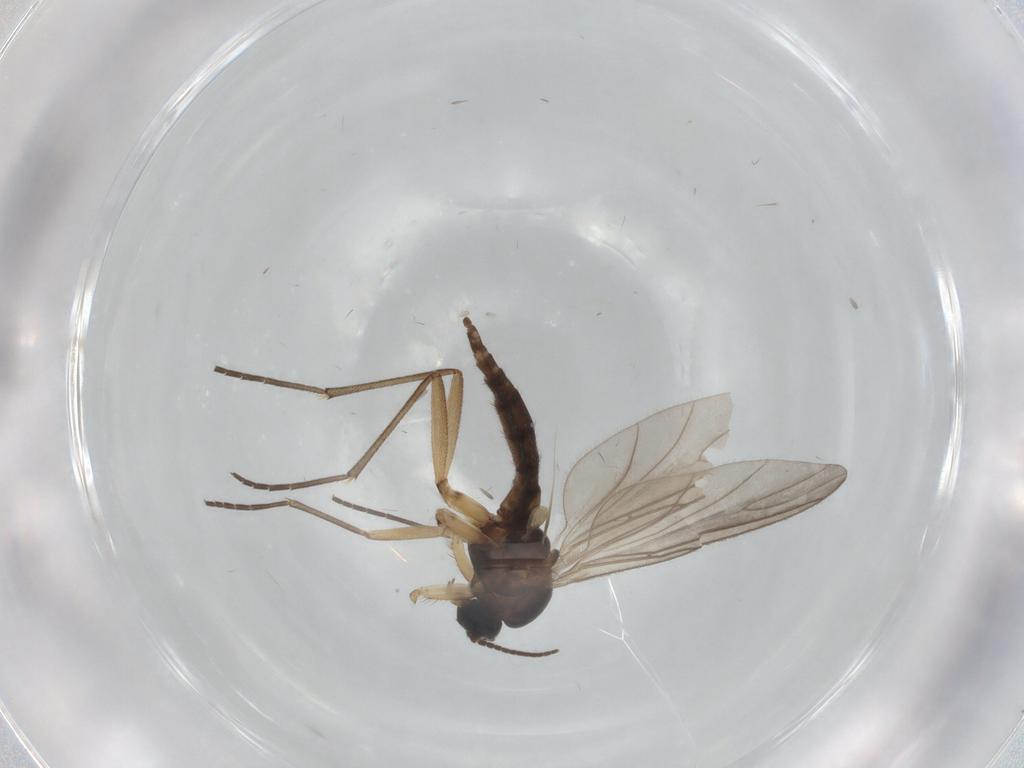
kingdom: Animalia
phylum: Arthropoda
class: Insecta
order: Diptera
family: Sciaridae
